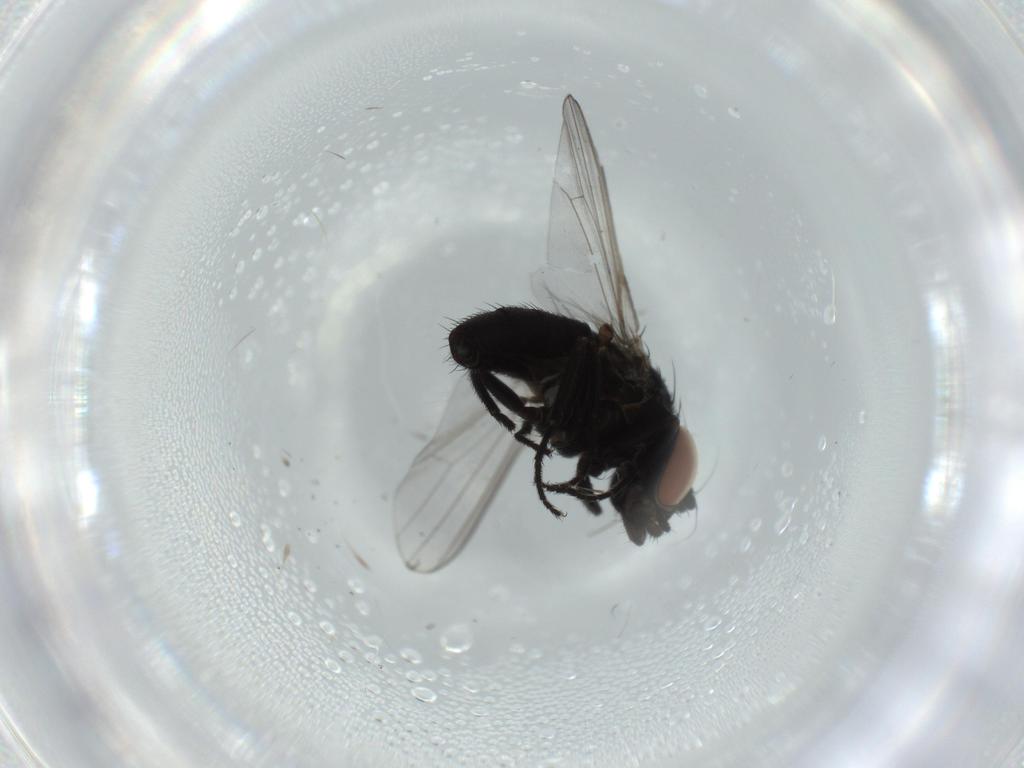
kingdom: Animalia
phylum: Arthropoda
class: Insecta
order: Diptera
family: Milichiidae
